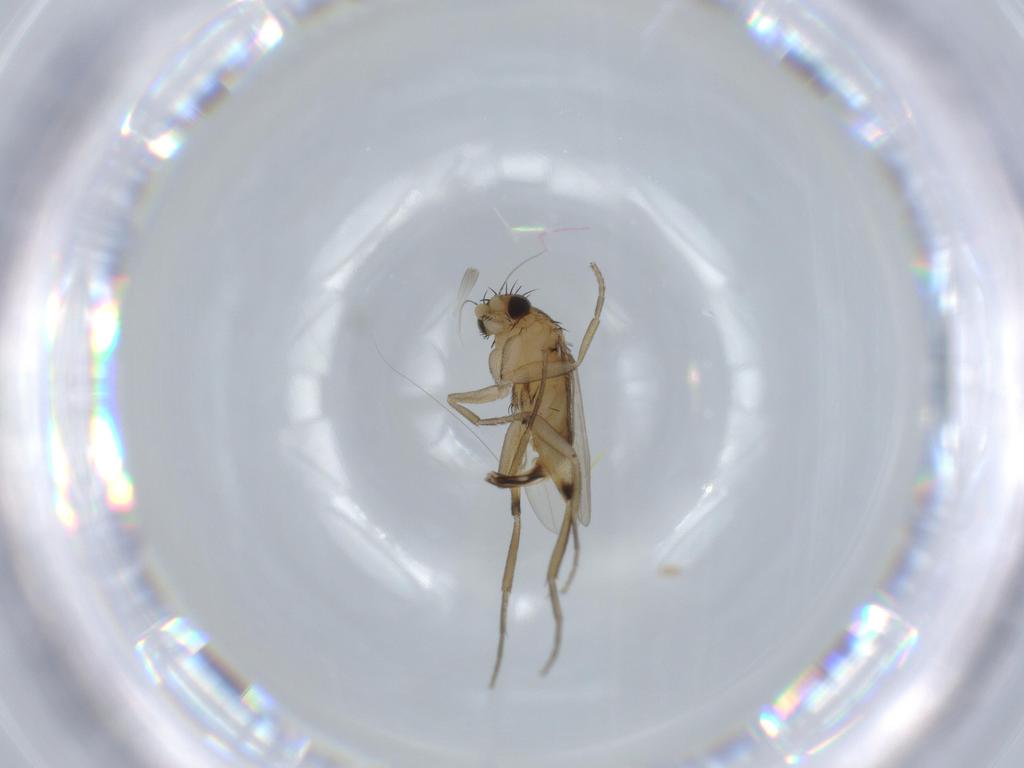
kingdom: Animalia
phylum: Arthropoda
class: Insecta
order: Diptera
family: Phoridae
